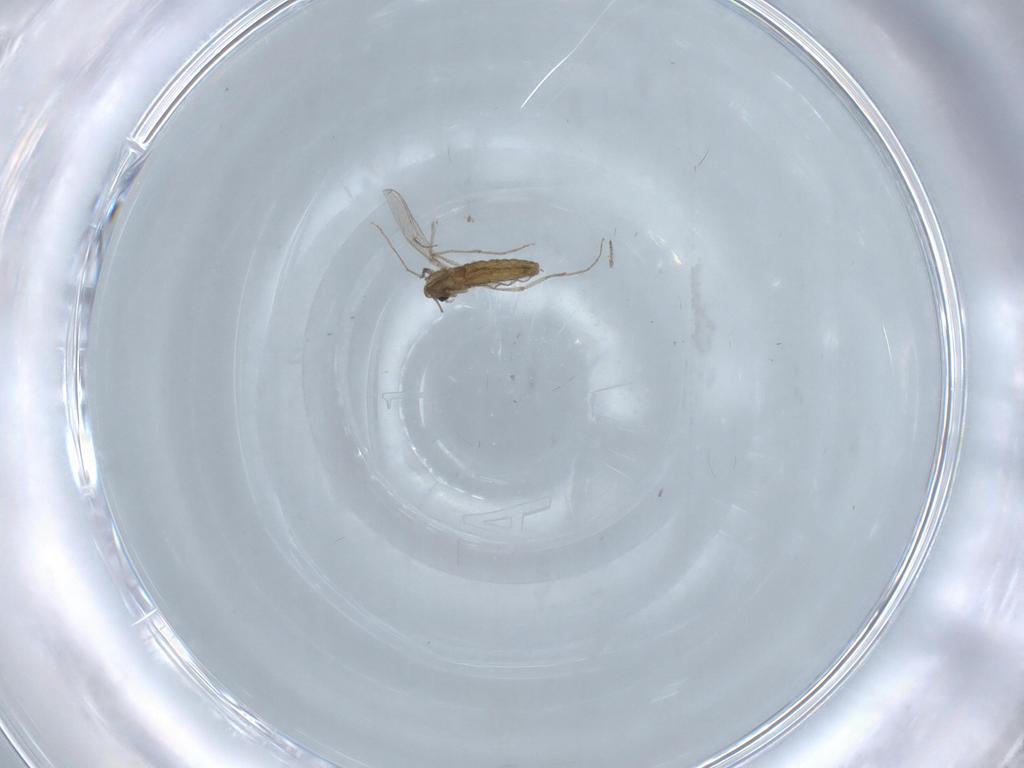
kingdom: Animalia
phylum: Arthropoda
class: Insecta
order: Diptera
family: Ceratopogonidae
